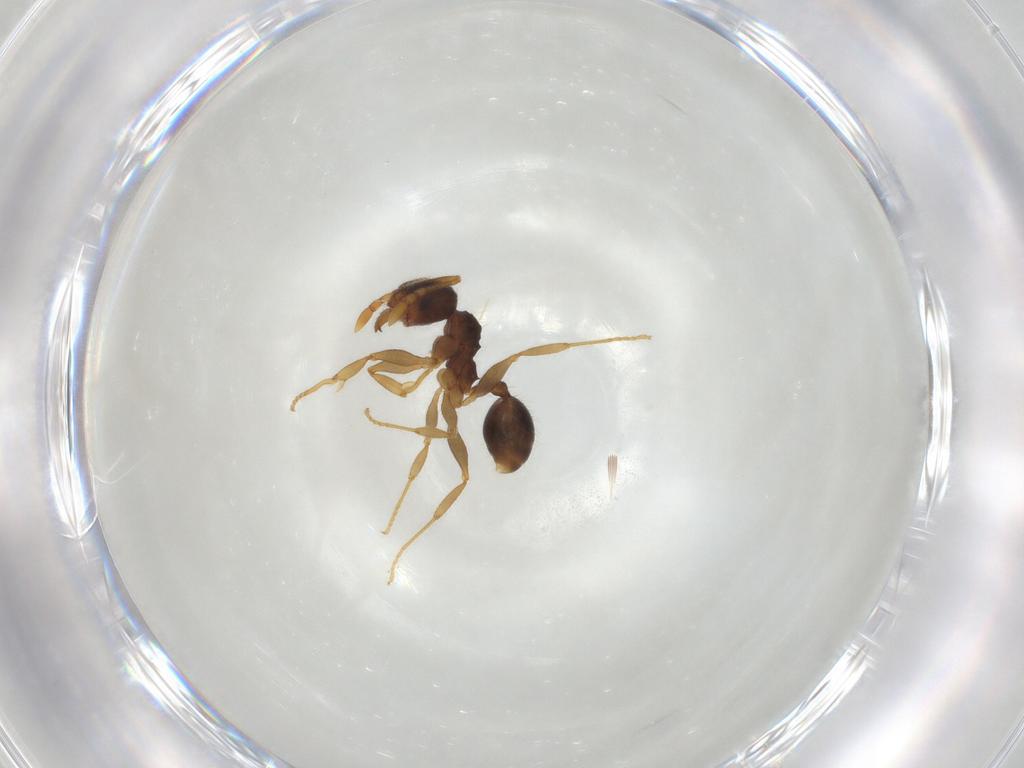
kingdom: Animalia
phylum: Arthropoda
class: Insecta
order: Hymenoptera
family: Formicidae
